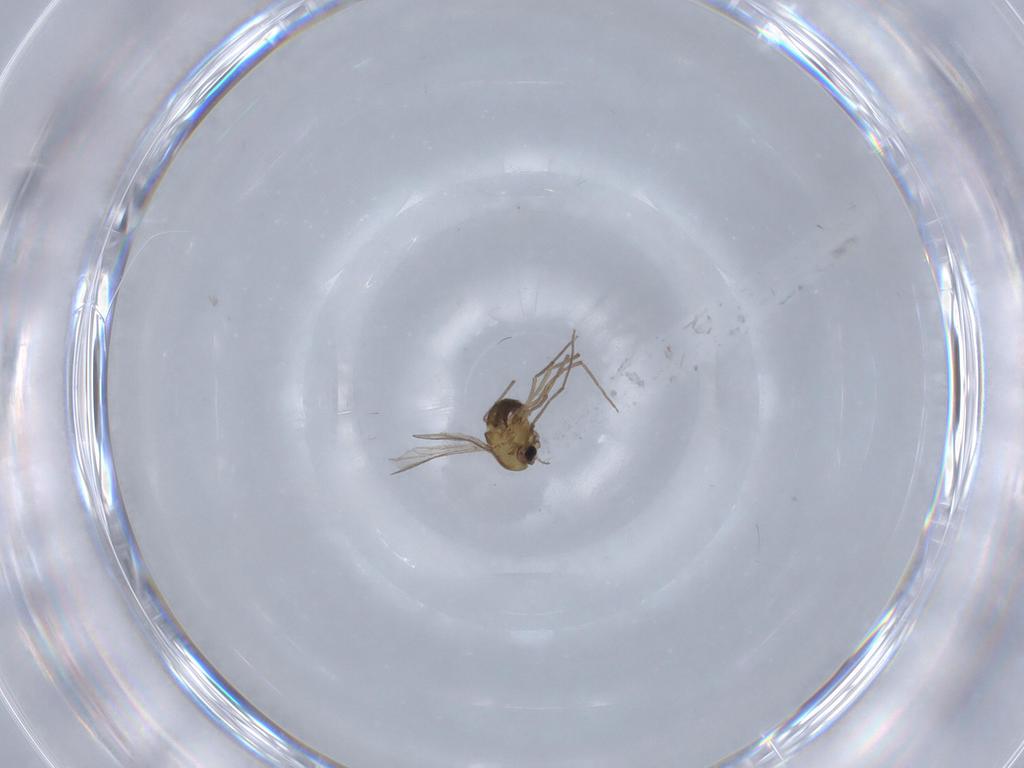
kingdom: Animalia
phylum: Arthropoda
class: Insecta
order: Diptera
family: Chironomidae
